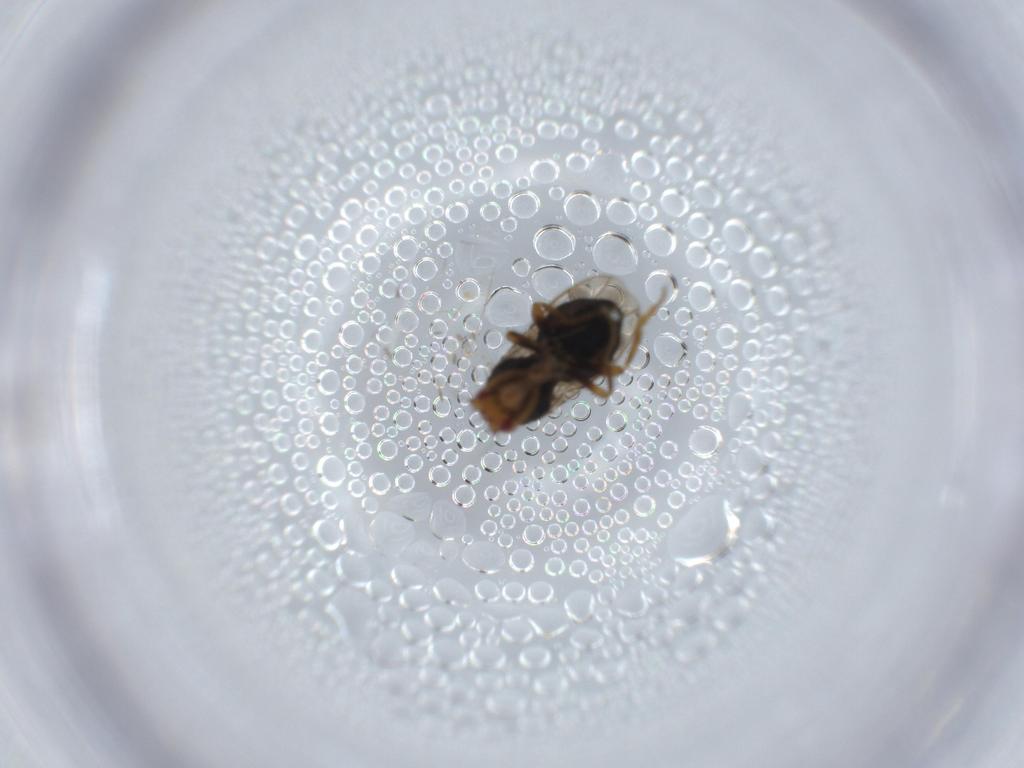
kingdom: Animalia
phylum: Arthropoda
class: Insecta
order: Diptera
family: Sphaeroceridae
